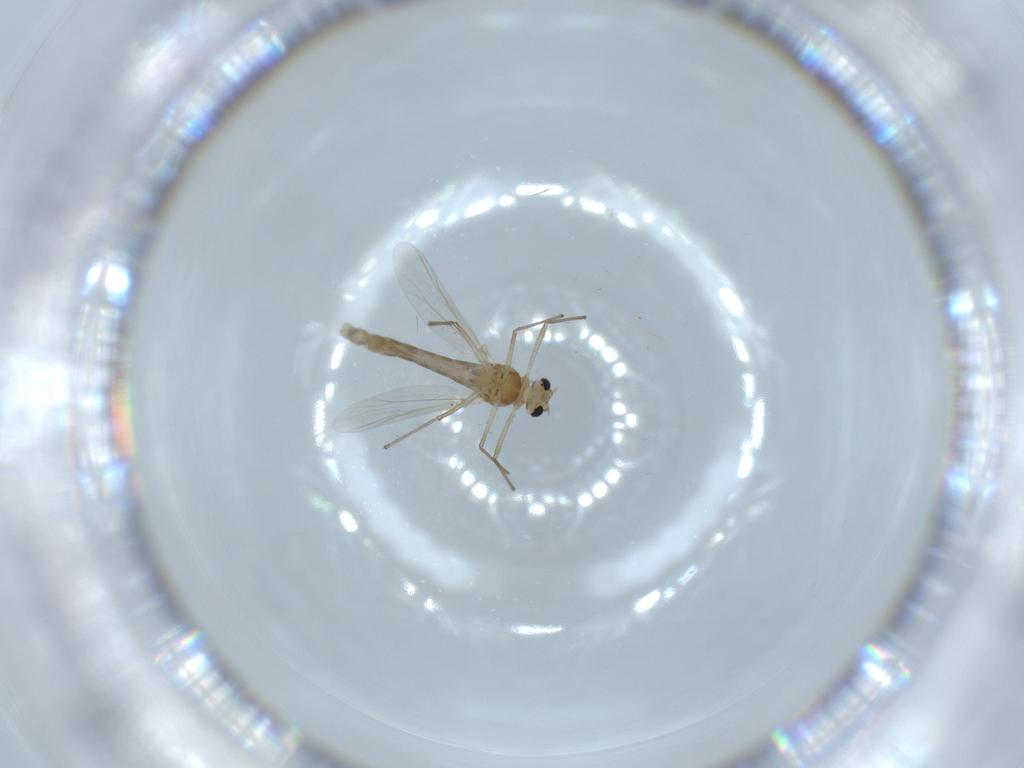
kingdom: Animalia
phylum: Arthropoda
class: Insecta
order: Diptera
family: Chironomidae
